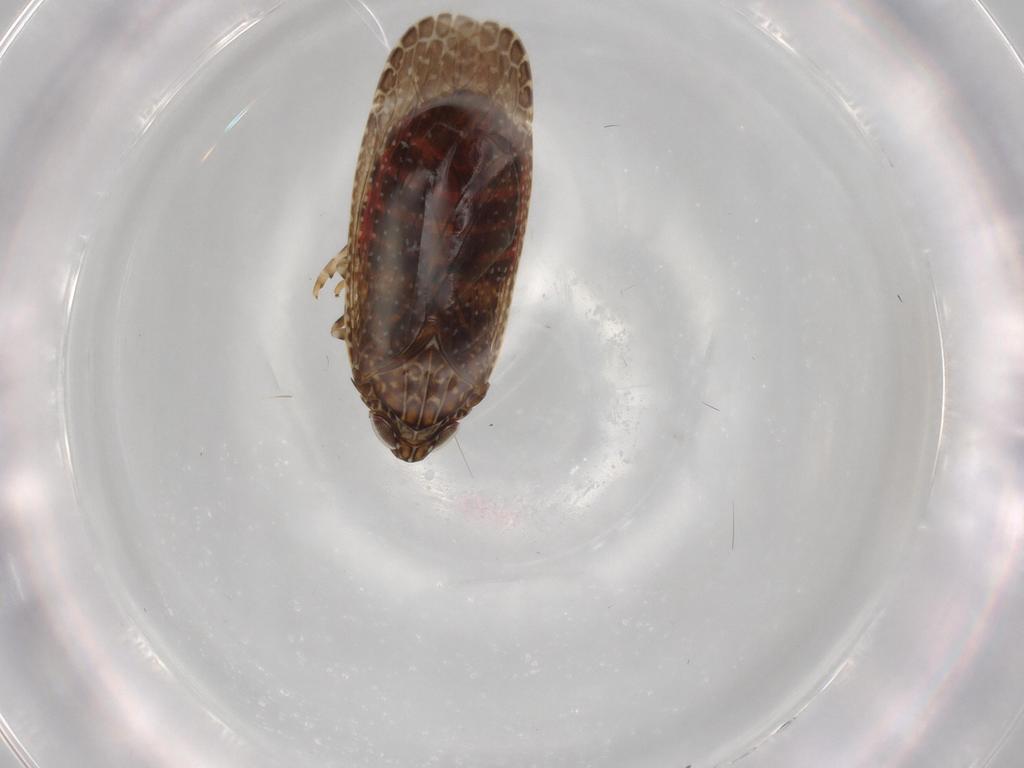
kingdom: Animalia
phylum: Arthropoda
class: Insecta
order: Hemiptera
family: Achilidae
